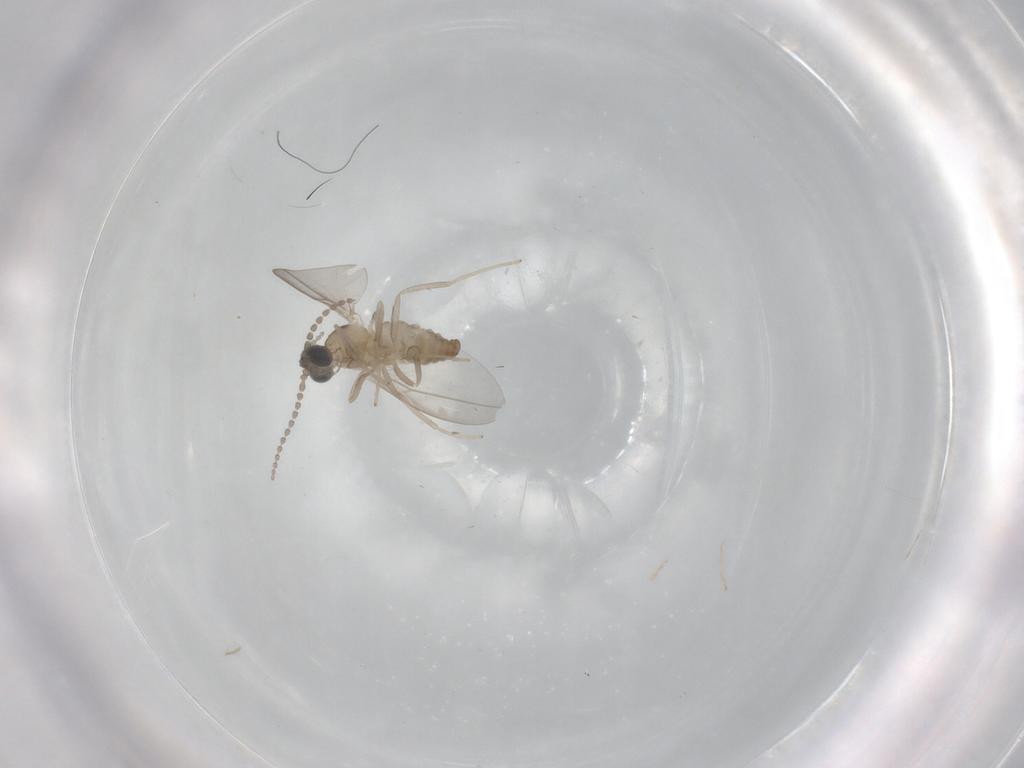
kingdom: Animalia
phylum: Arthropoda
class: Insecta
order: Diptera
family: Cecidomyiidae
